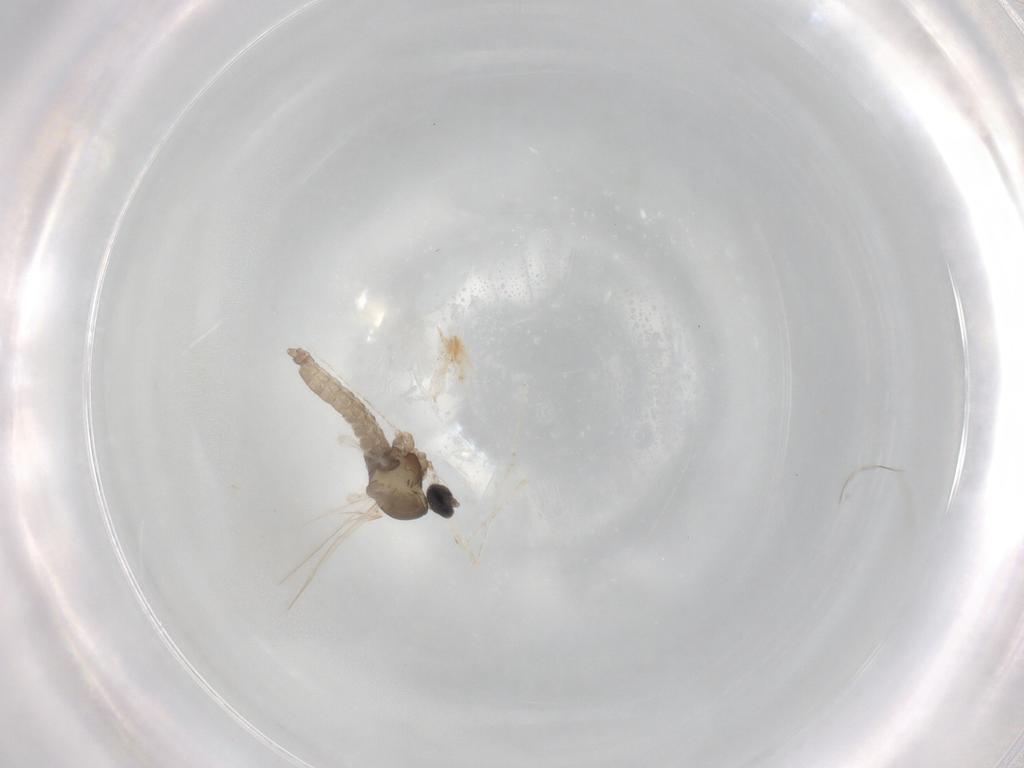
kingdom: Animalia
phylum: Arthropoda
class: Insecta
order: Diptera
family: Cecidomyiidae
